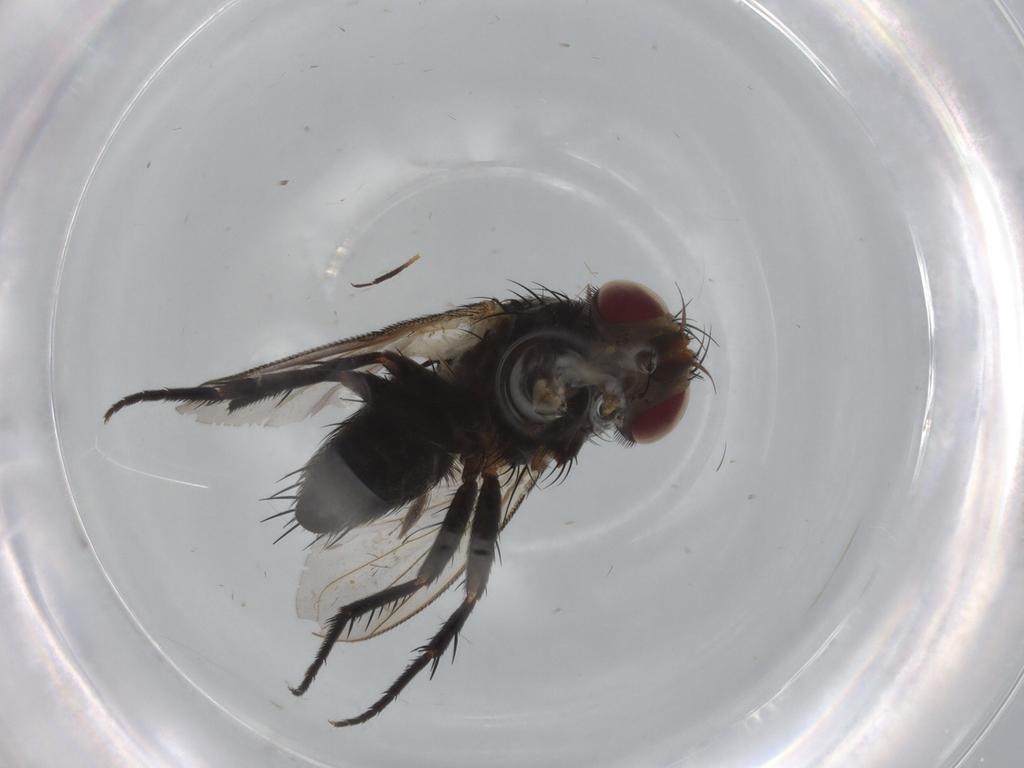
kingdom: Animalia
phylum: Arthropoda
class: Insecta
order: Diptera
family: Tachinidae
